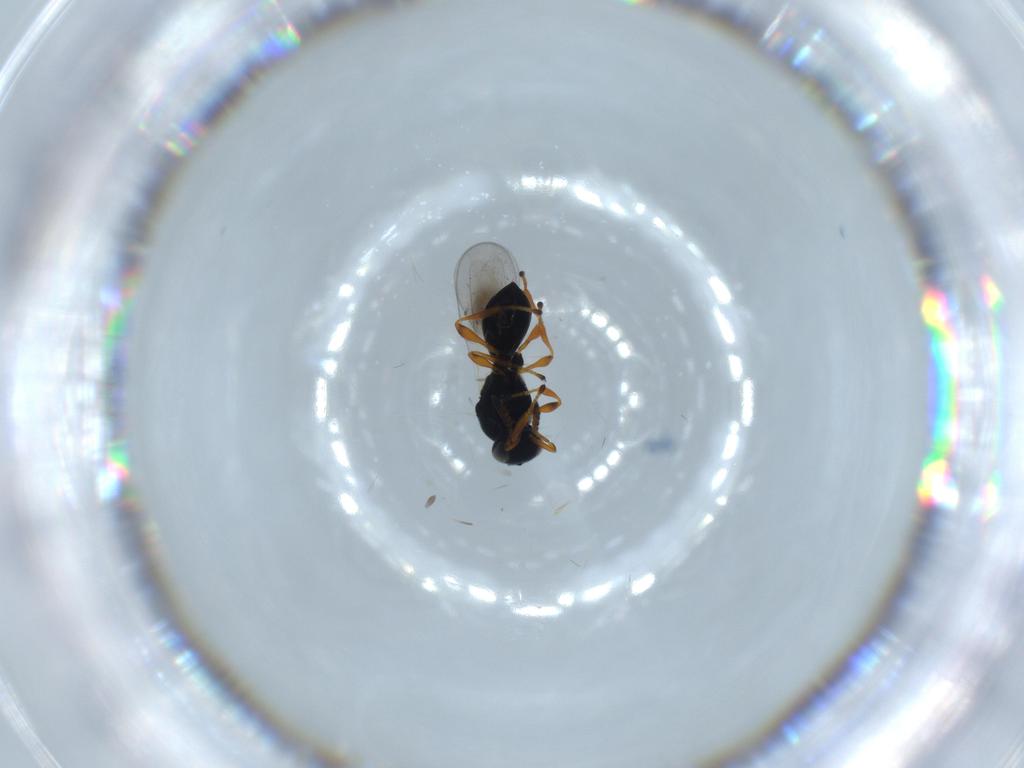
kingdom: Animalia
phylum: Arthropoda
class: Insecta
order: Hymenoptera
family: Platygastridae
